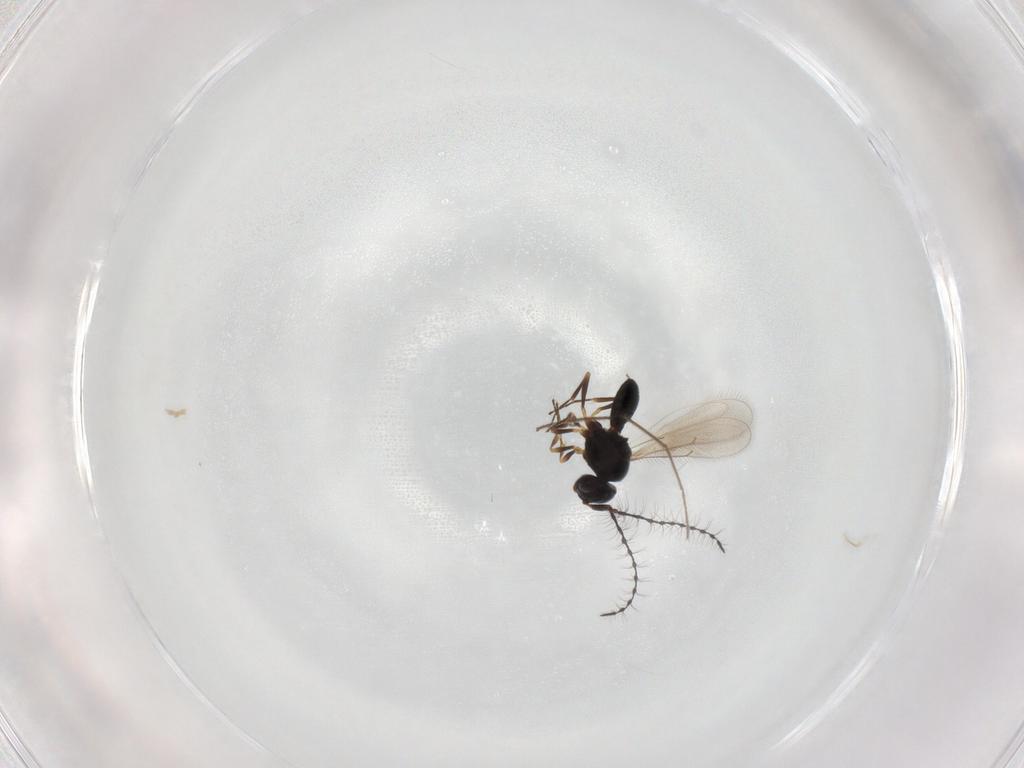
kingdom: Animalia
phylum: Arthropoda
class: Insecta
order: Hymenoptera
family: Scelionidae
